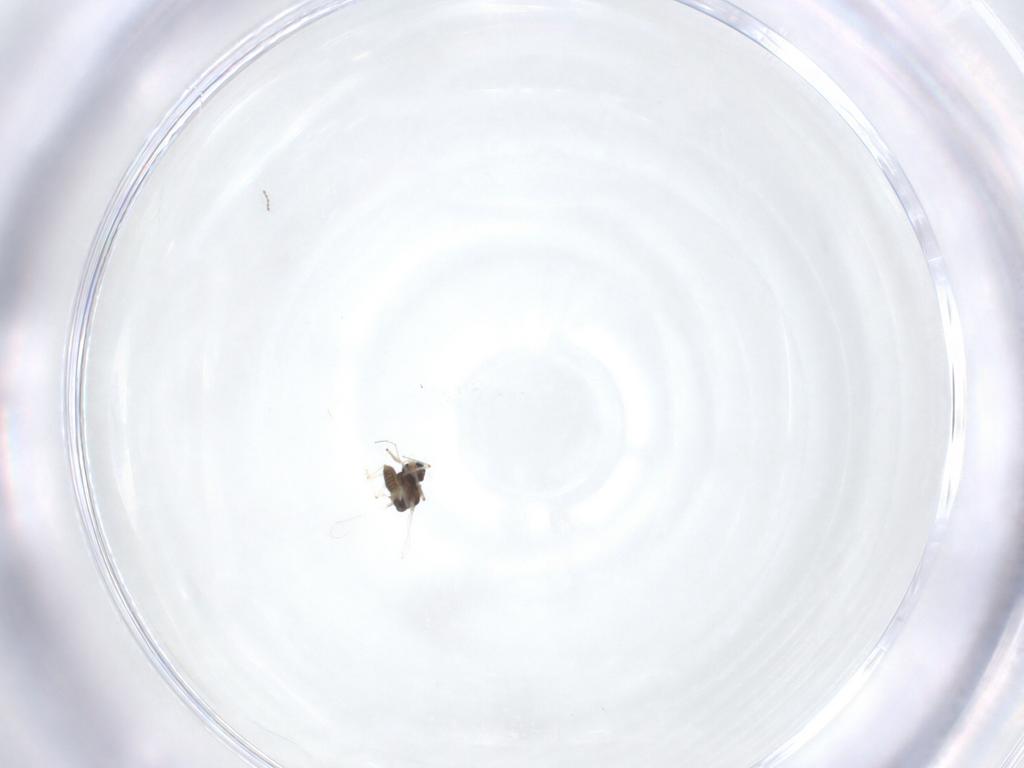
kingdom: Animalia
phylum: Arthropoda
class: Insecta
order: Diptera
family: Chironomidae
